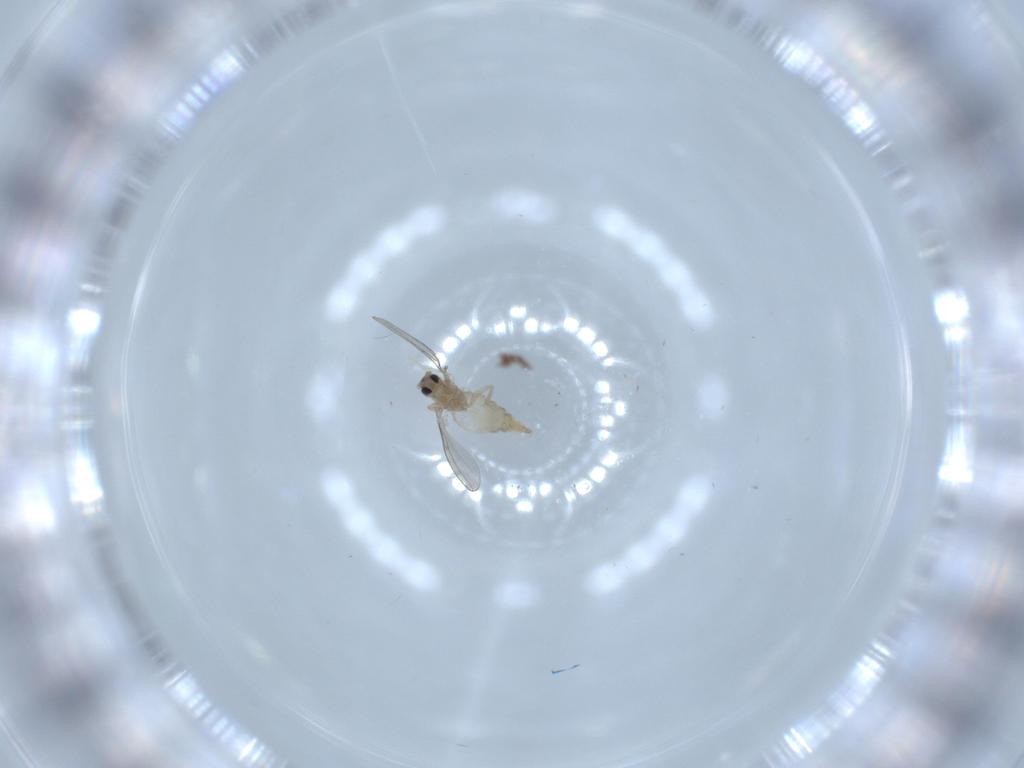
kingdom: Animalia
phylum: Arthropoda
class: Insecta
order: Diptera
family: Cecidomyiidae
